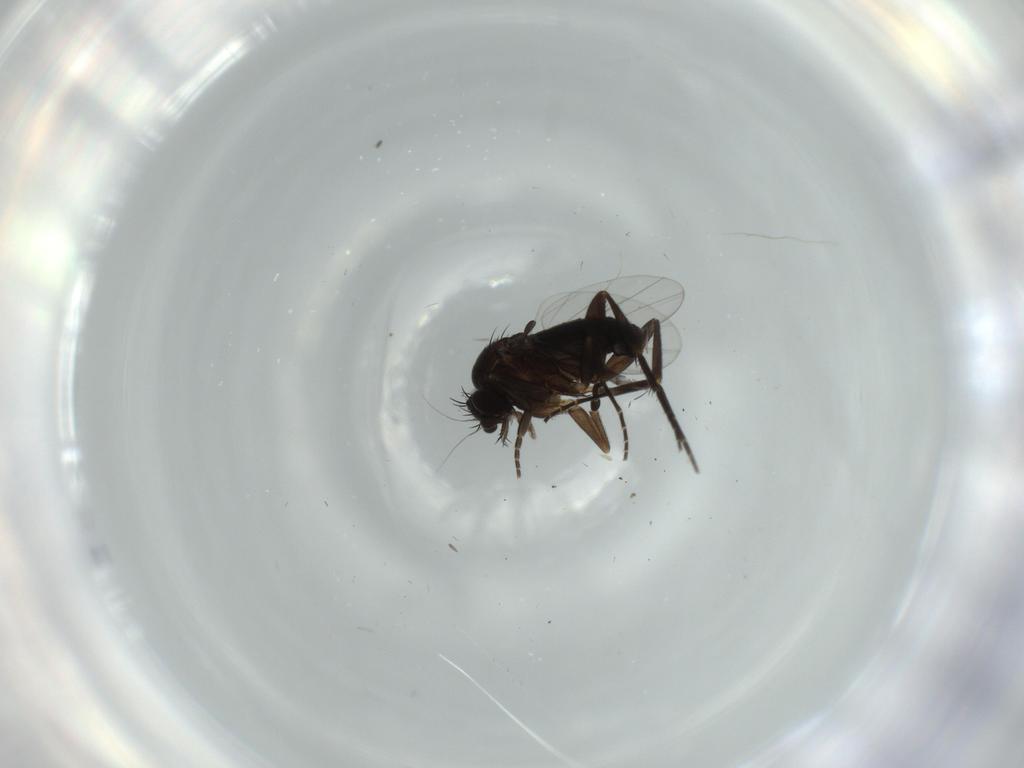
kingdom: Animalia
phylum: Arthropoda
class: Insecta
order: Diptera
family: Phoridae
